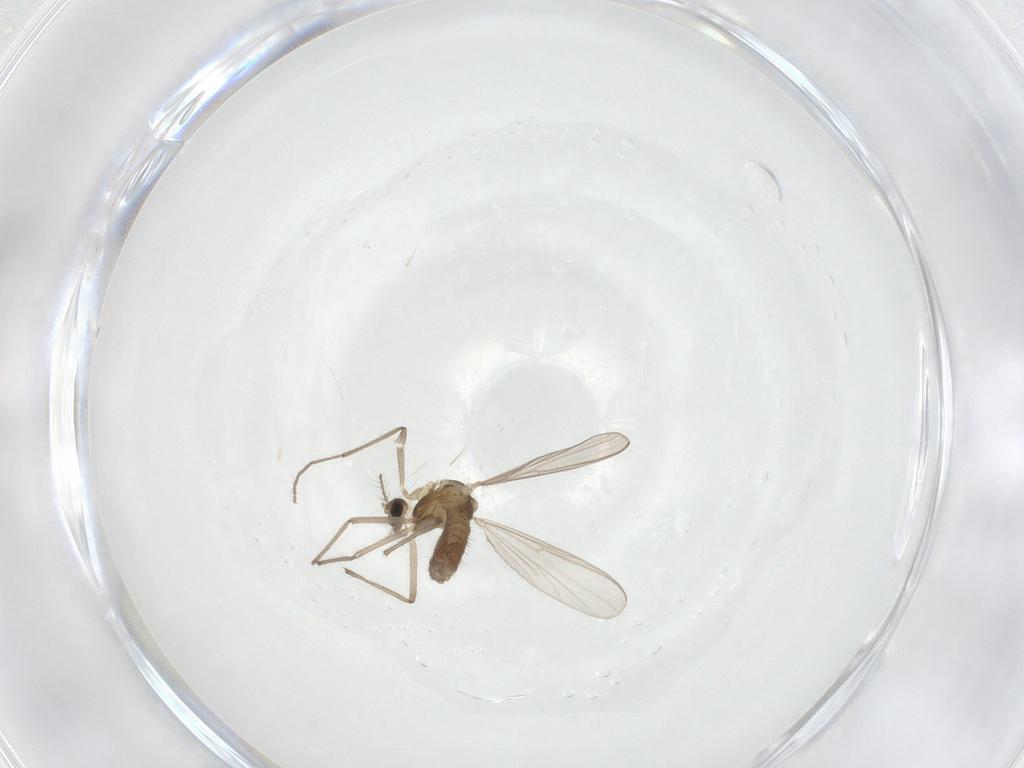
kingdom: Animalia
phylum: Arthropoda
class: Insecta
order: Diptera
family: Chironomidae
